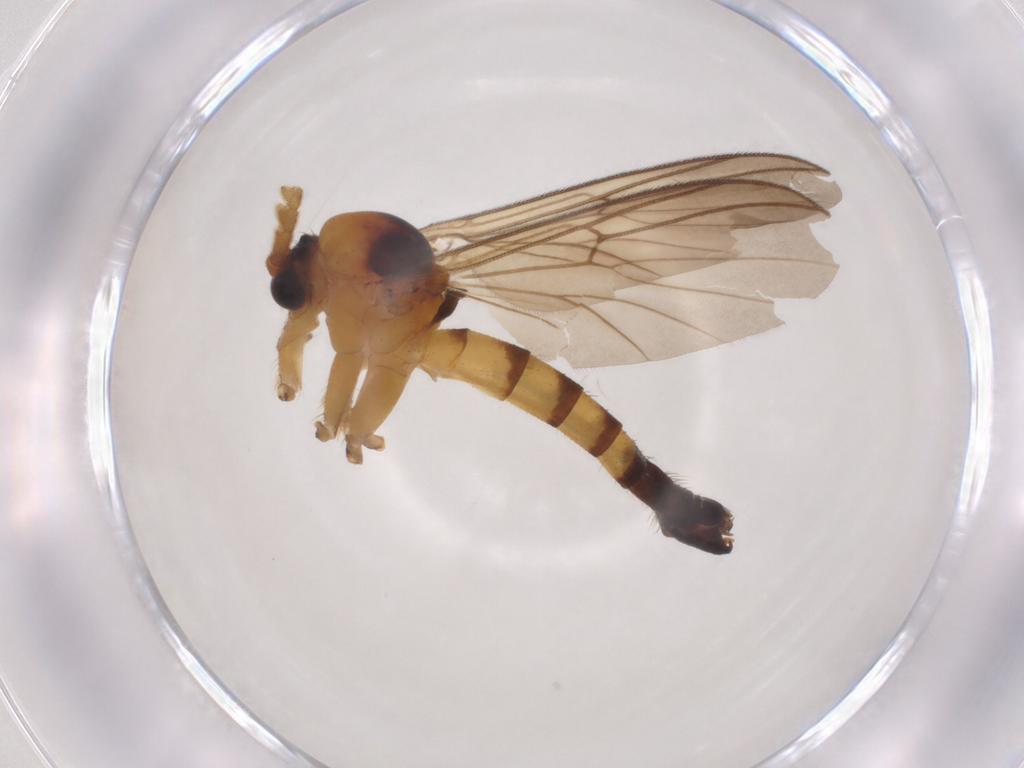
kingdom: Animalia
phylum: Arthropoda
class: Insecta
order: Diptera
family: Mycetophilidae
